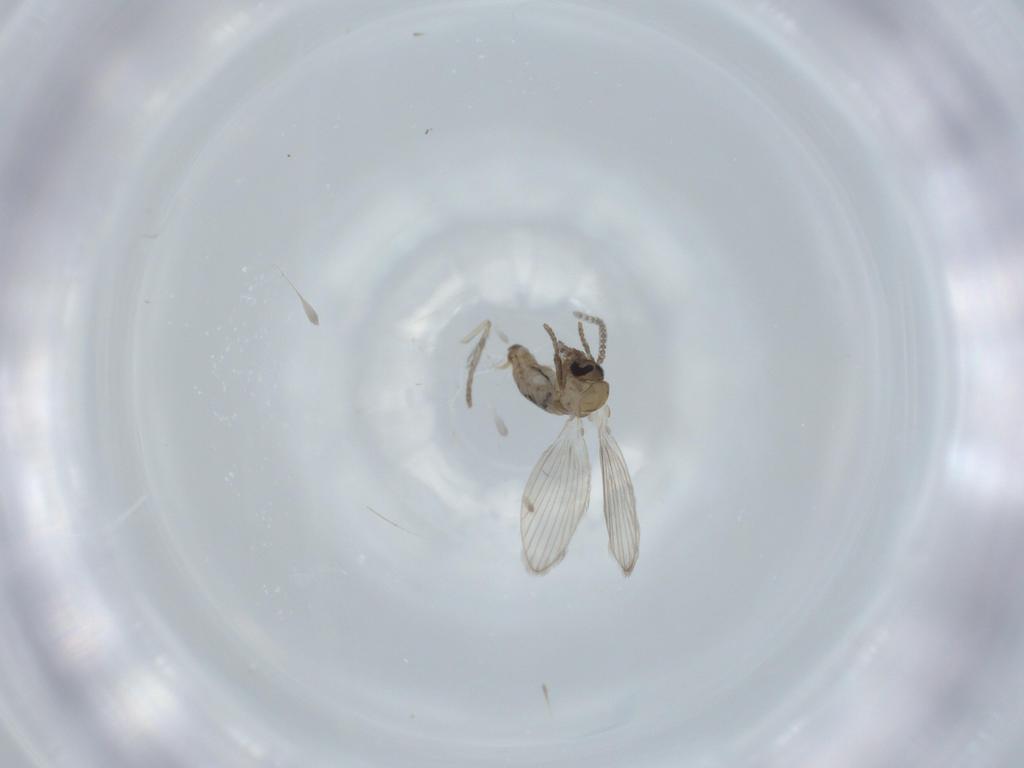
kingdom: Animalia
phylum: Arthropoda
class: Insecta
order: Diptera
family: Psychodidae
